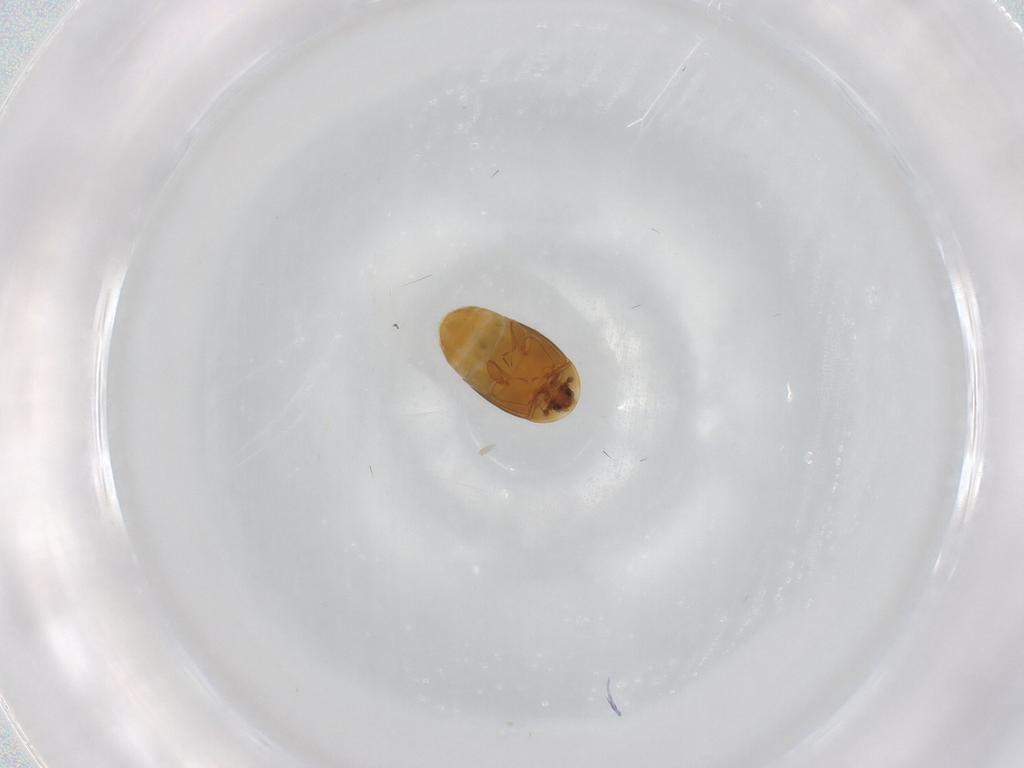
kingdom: Animalia
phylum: Arthropoda
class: Insecta
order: Coleoptera
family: Corylophidae
